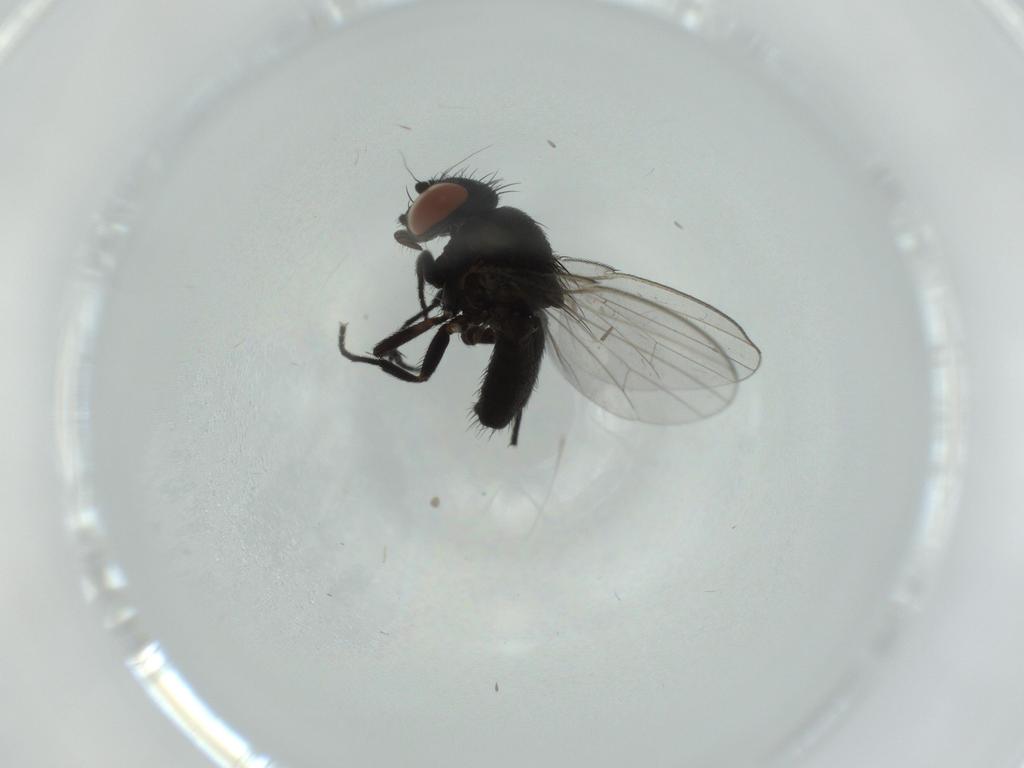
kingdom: Animalia
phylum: Arthropoda
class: Insecta
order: Diptera
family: Milichiidae
